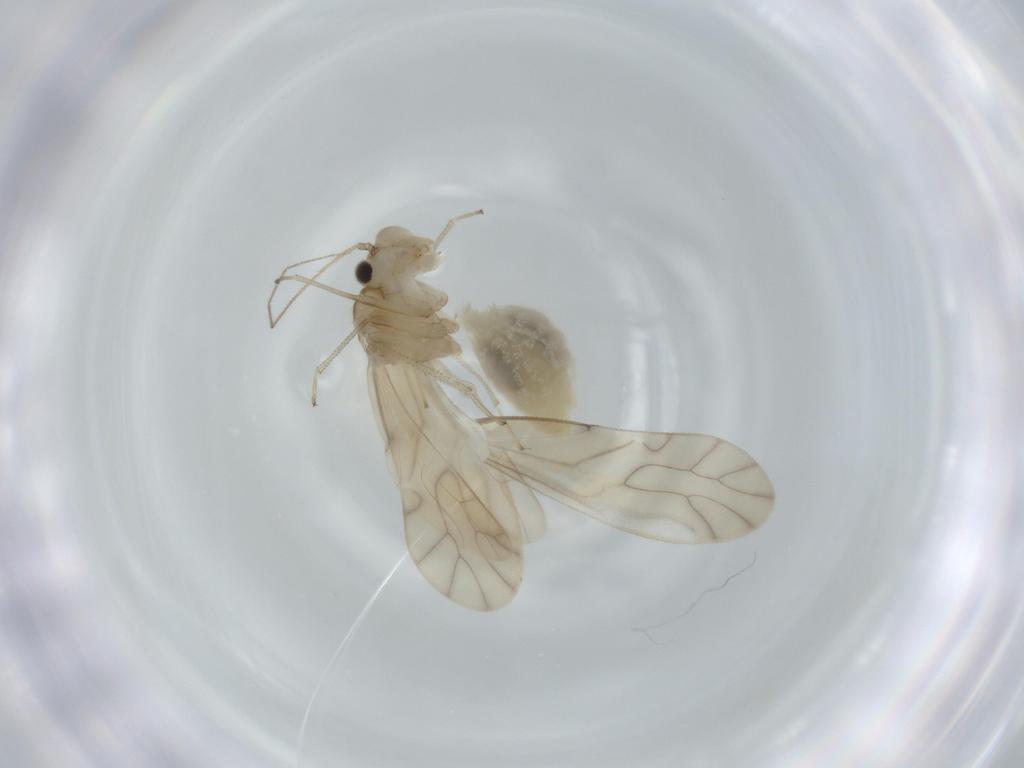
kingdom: Animalia
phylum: Arthropoda
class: Insecta
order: Psocodea
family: Caeciliusidae
